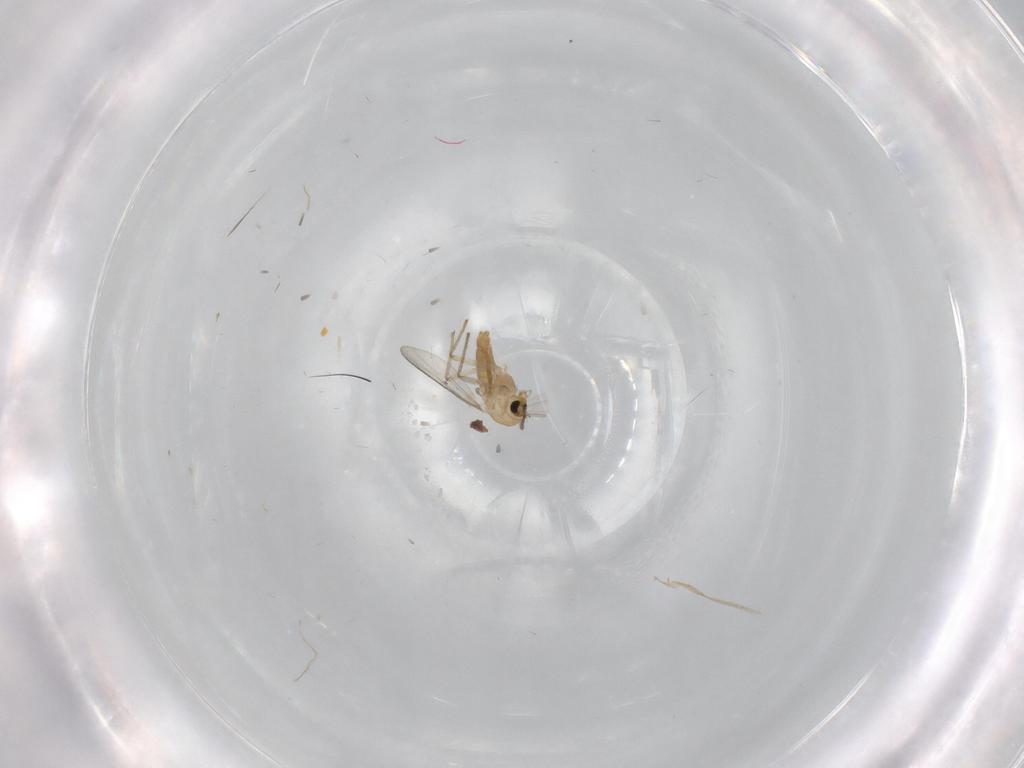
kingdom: Animalia
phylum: Arthropoda
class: Insecta
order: Diptera
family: Chironomidae
